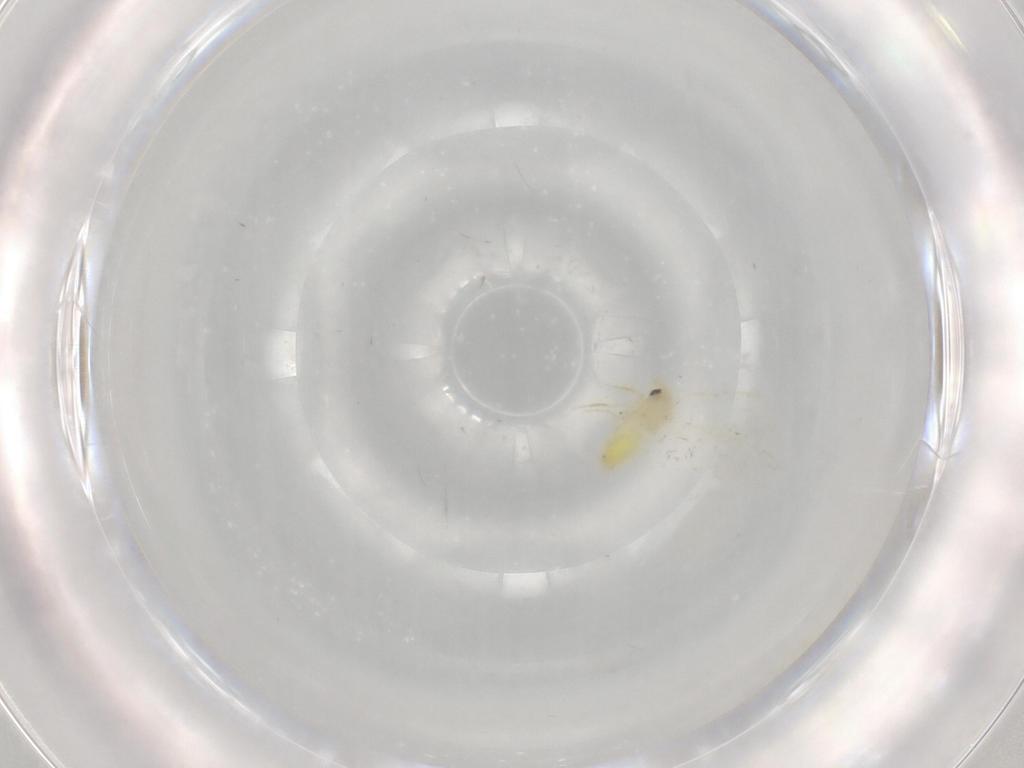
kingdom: Animalia
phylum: Arthropoda
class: Insecta
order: Hemiptera
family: Aleyrodidae
